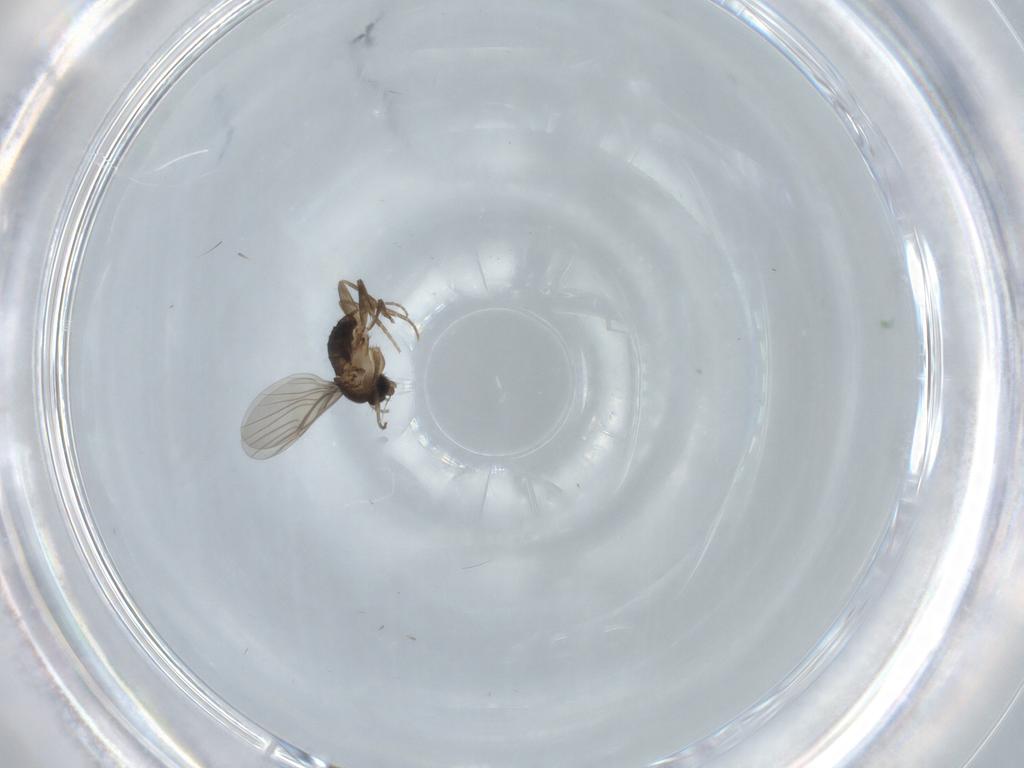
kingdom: Animalia
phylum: Arthropoda
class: Insecta
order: Diptera
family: Phoridae
